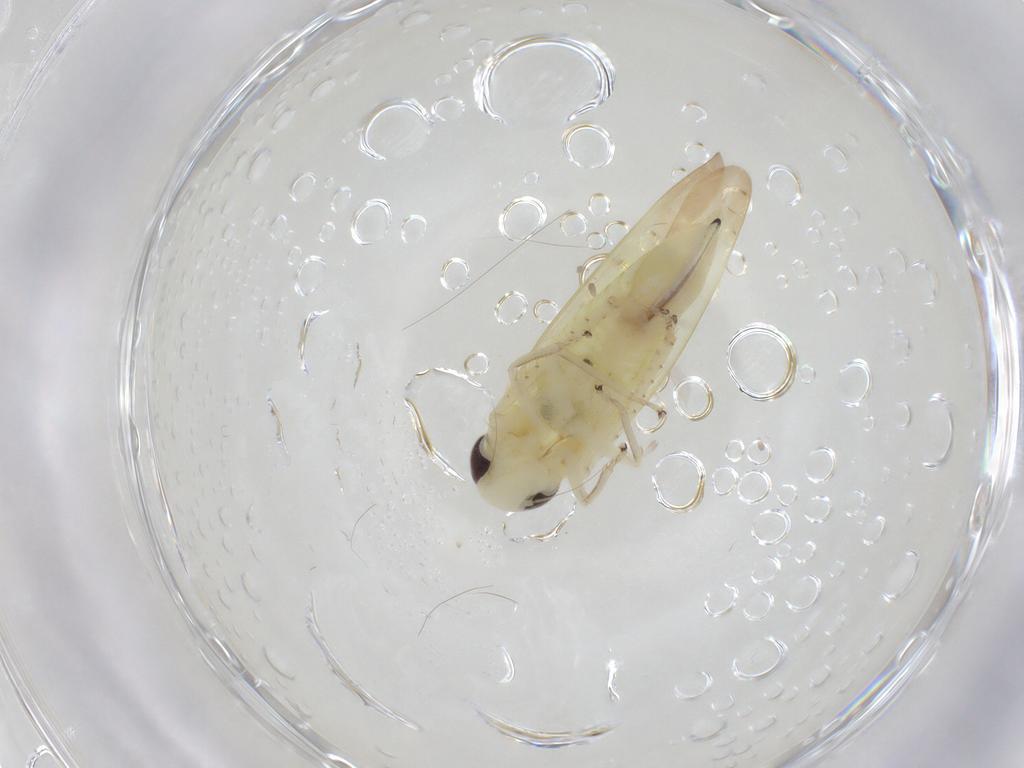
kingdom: Animalia
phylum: Arthropoda
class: Insecta
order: Hemiptera
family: Cicadellidae
